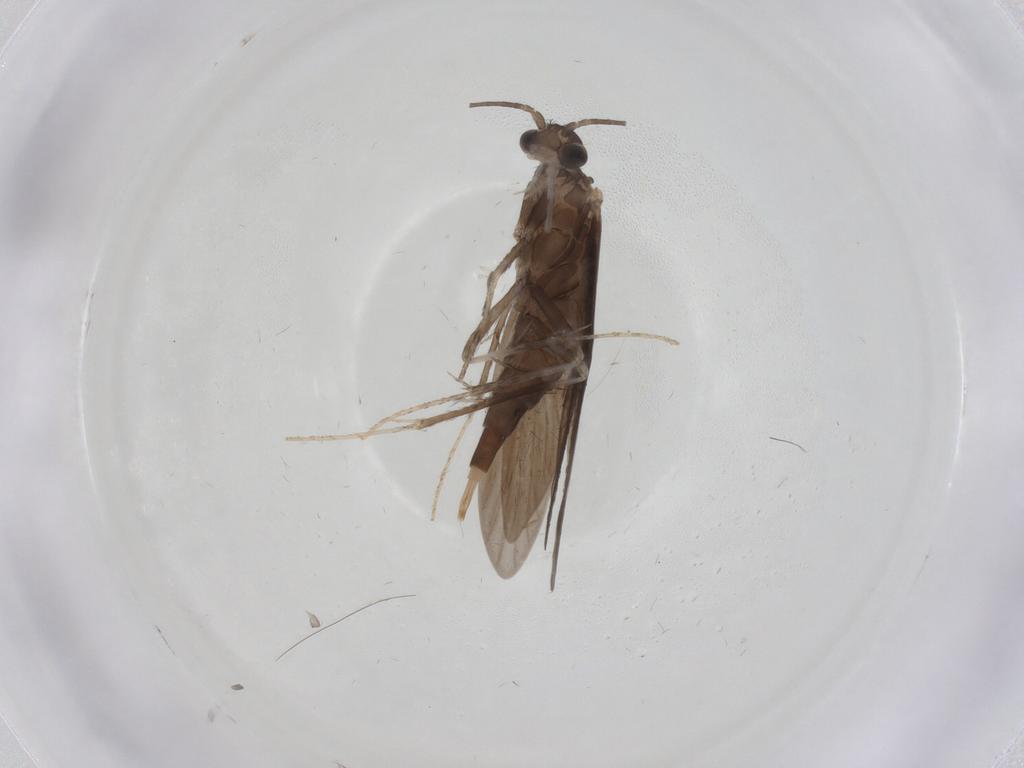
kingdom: Animalia
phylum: Arthropoda
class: Insecta
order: Trichoptera
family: Xiphocentronidae
